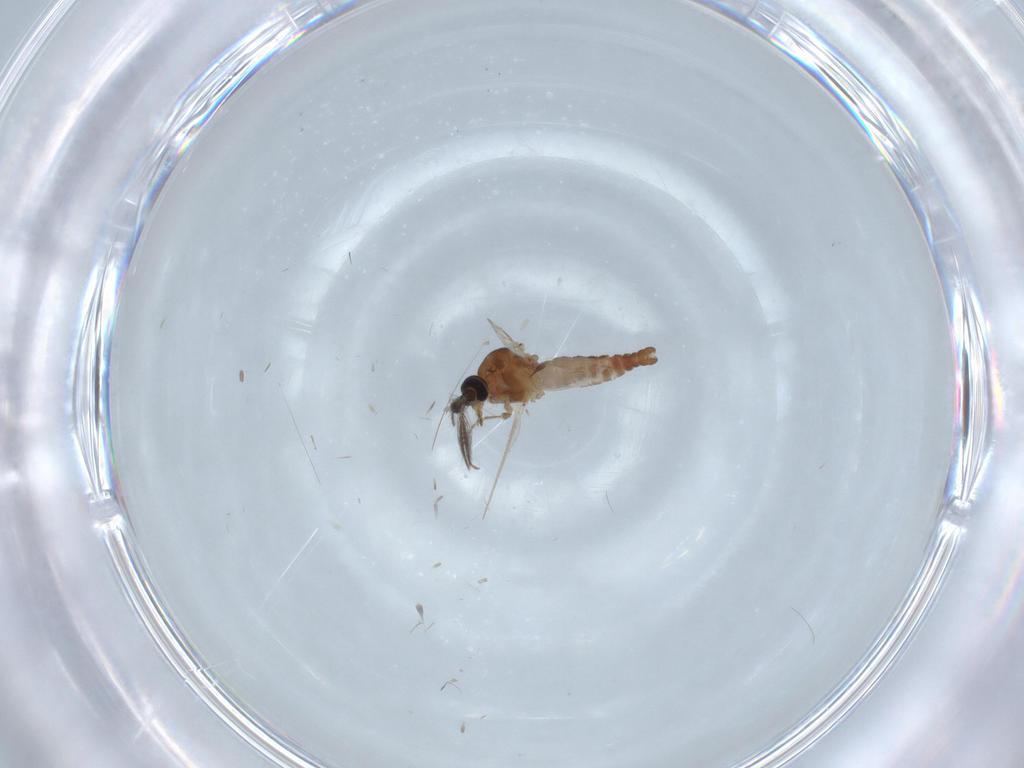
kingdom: Animalia
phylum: Arthropoda
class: Insecta
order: Diptera
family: Ceratopogonidae
